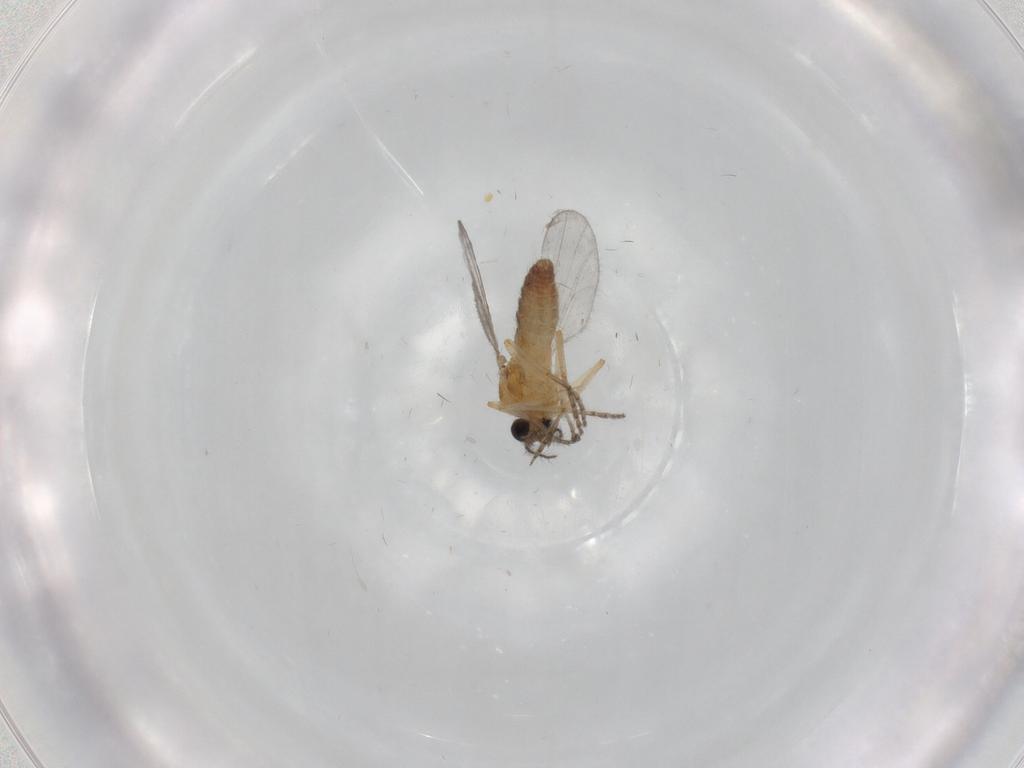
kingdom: Animalia
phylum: Arthropoda
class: Insecta
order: Diptera
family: Ceratopogonidae
